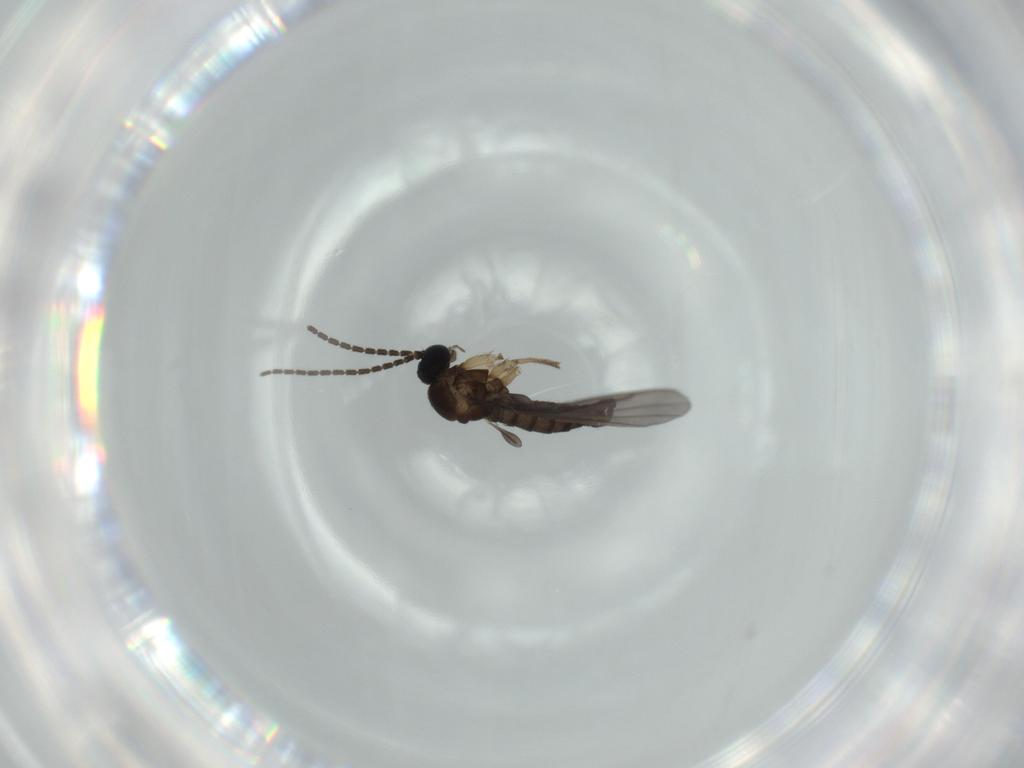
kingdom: Animalia
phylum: Arthropoda
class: Insecta
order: Diptera
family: Sciaridae
